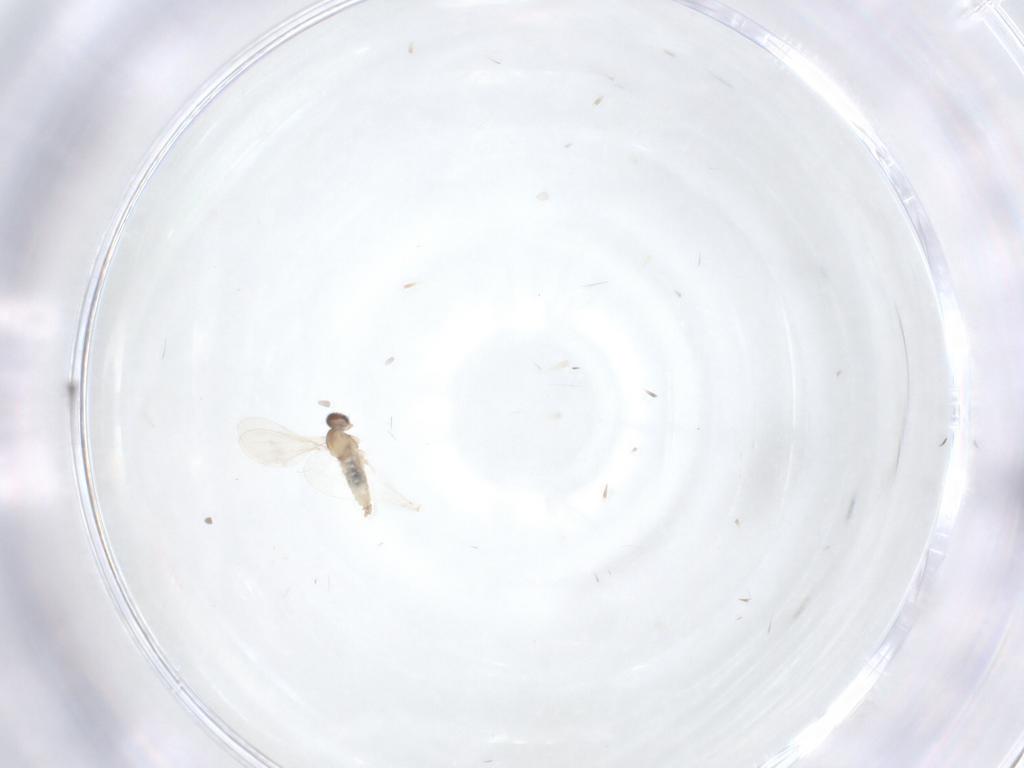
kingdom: Animalia
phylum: Arthropoda
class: Insecta
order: Diptera
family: Cecidomyiidae
